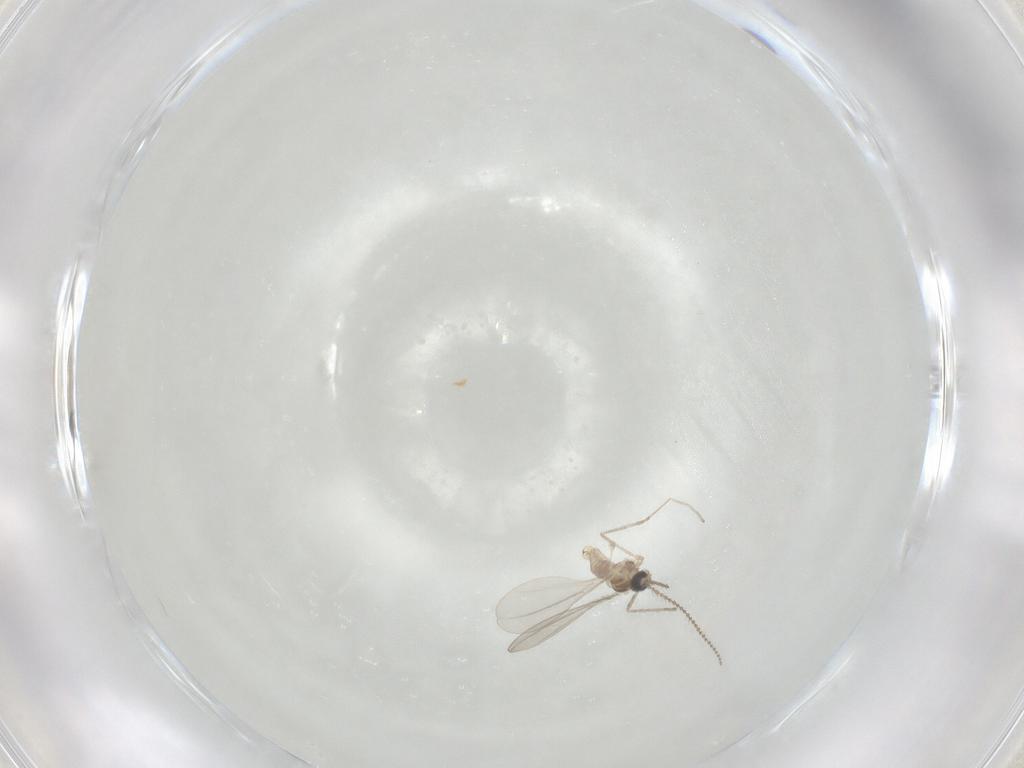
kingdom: Animalia
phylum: Arthropoda
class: Insecta
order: Diptera
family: Cecidomyiidae
